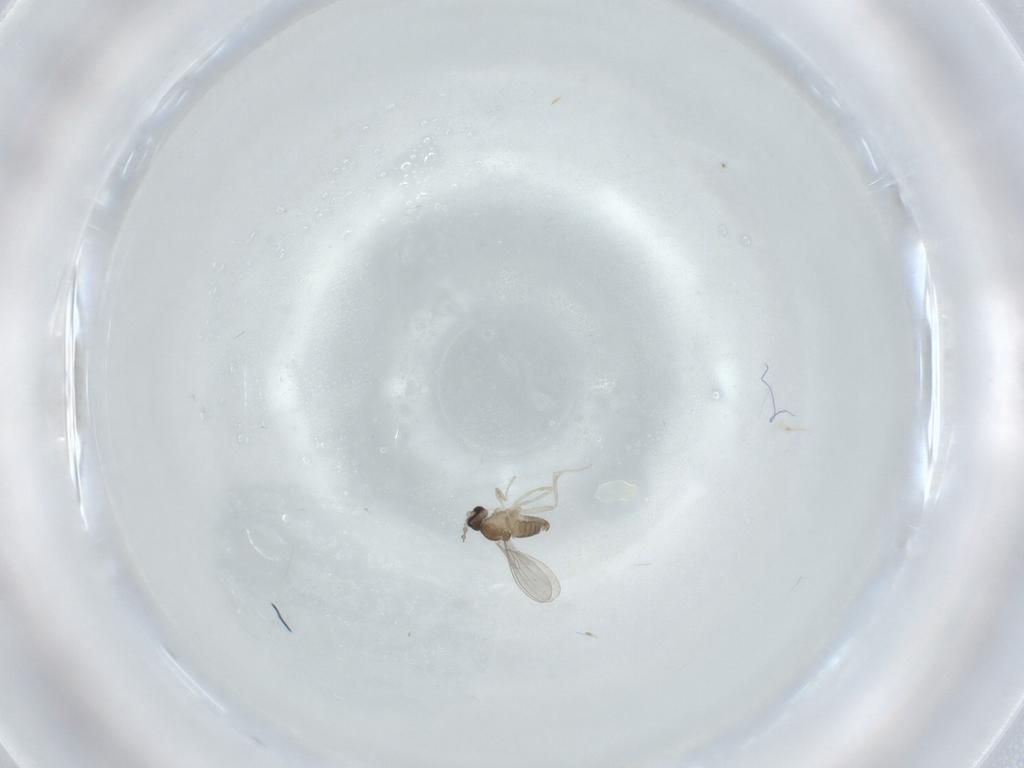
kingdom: Animalia
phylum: Arthropoda
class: Insecta
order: Diptera
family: Cecidomyiidae
